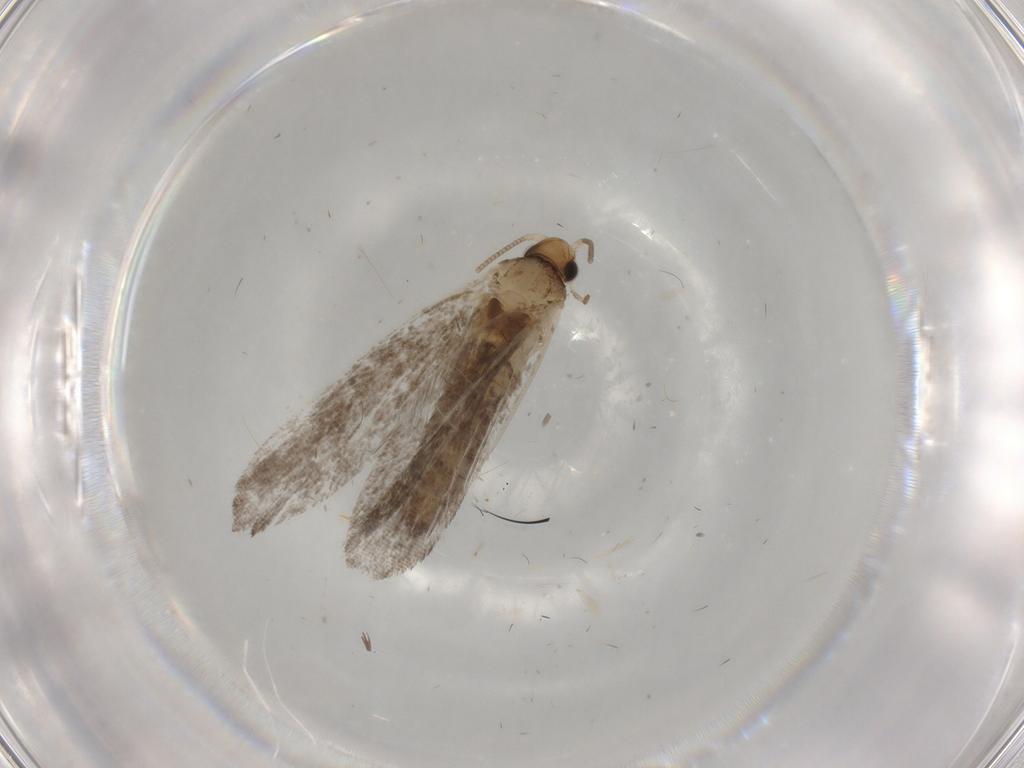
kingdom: Animalia
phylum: Arthropoda
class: Insecta
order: Lepidoptera
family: Tineidae
